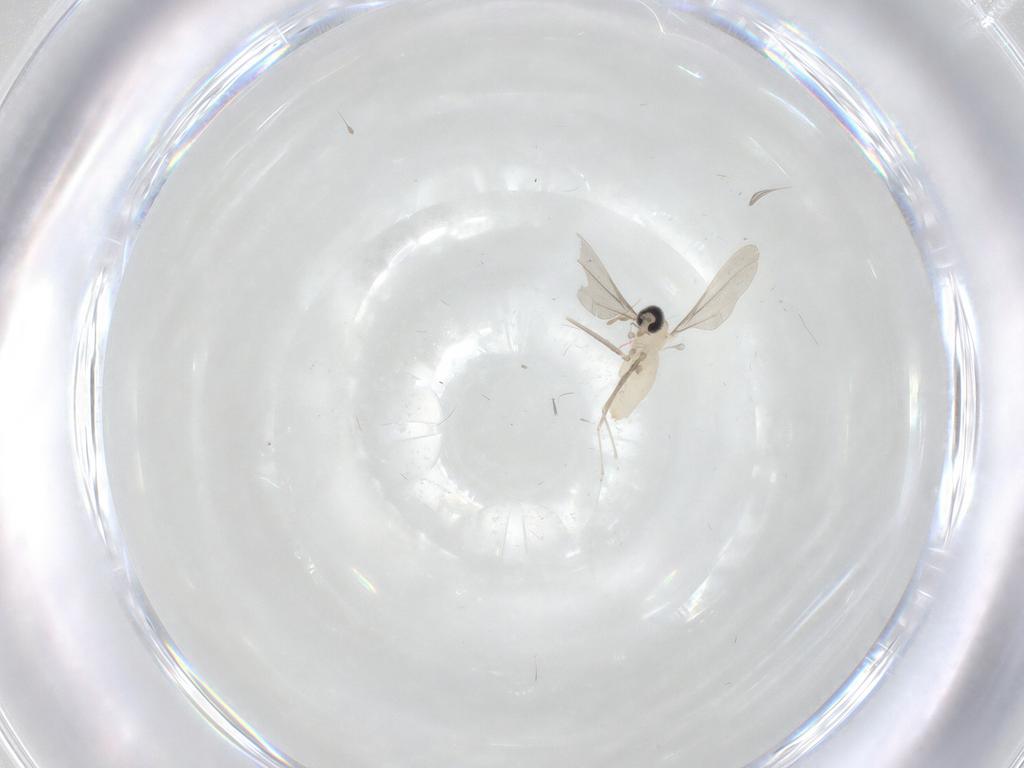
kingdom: Animalia
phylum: Arthropoda
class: Insecta
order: Diptera
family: Cecidomyiidae
